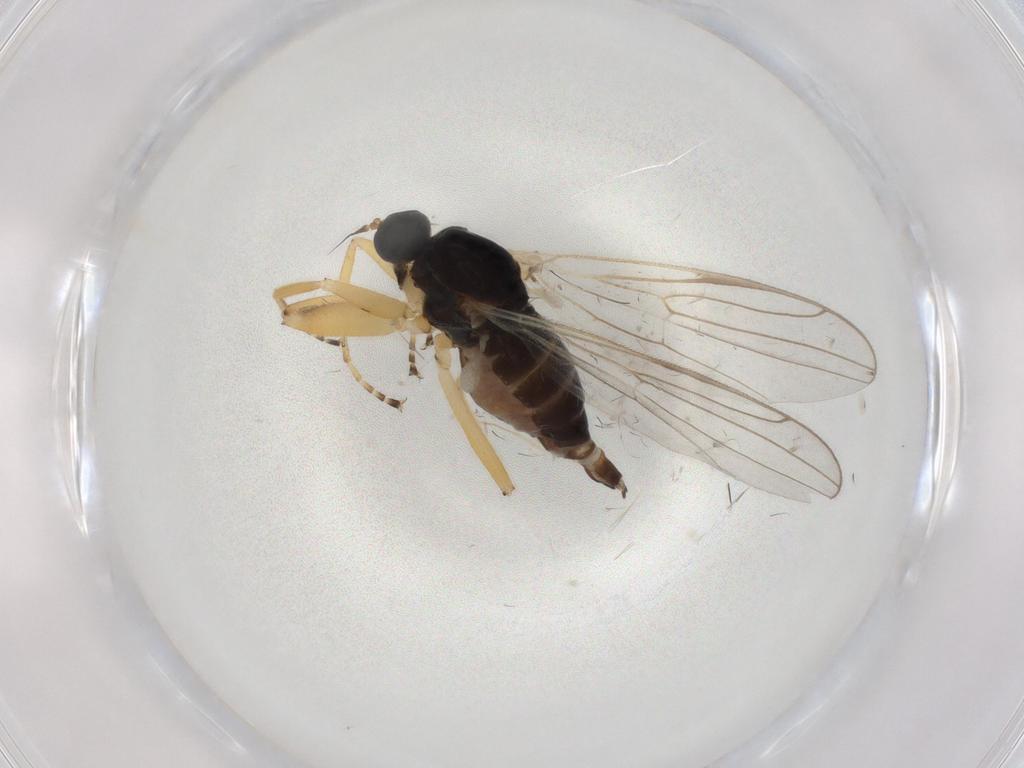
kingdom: Animalia
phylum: Arthropoda
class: Insecta
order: Diptera
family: Hybotidae
